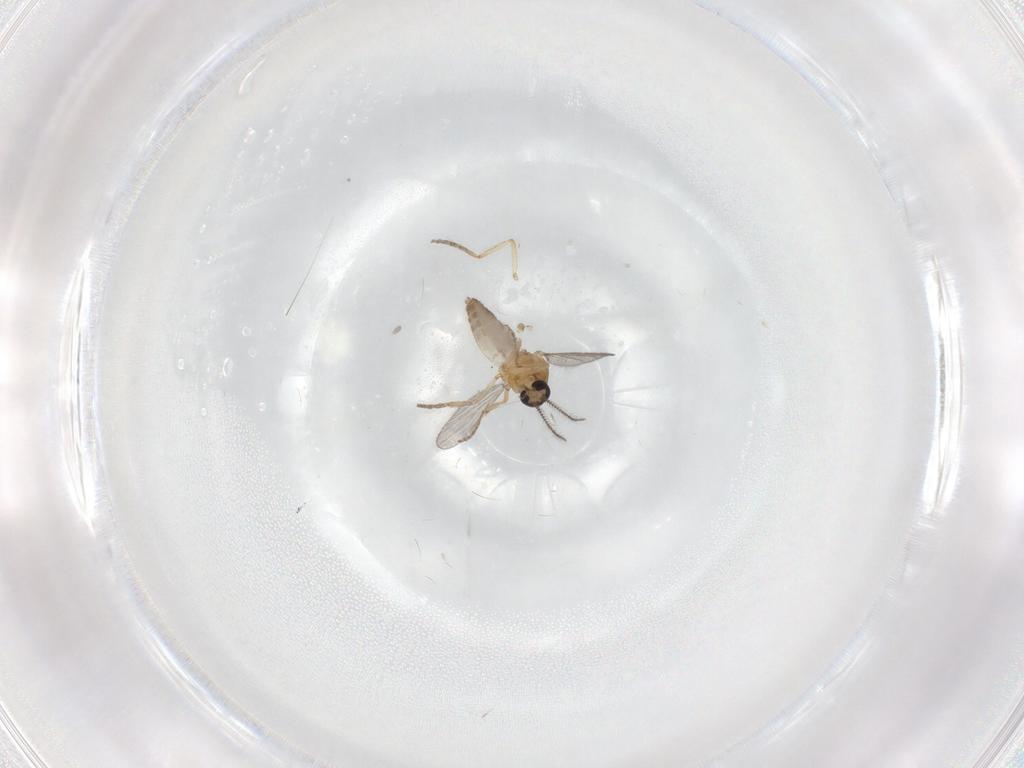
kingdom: Animalia
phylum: Arthropoda
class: Insecta
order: Diptera
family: Ceratopogonidae
